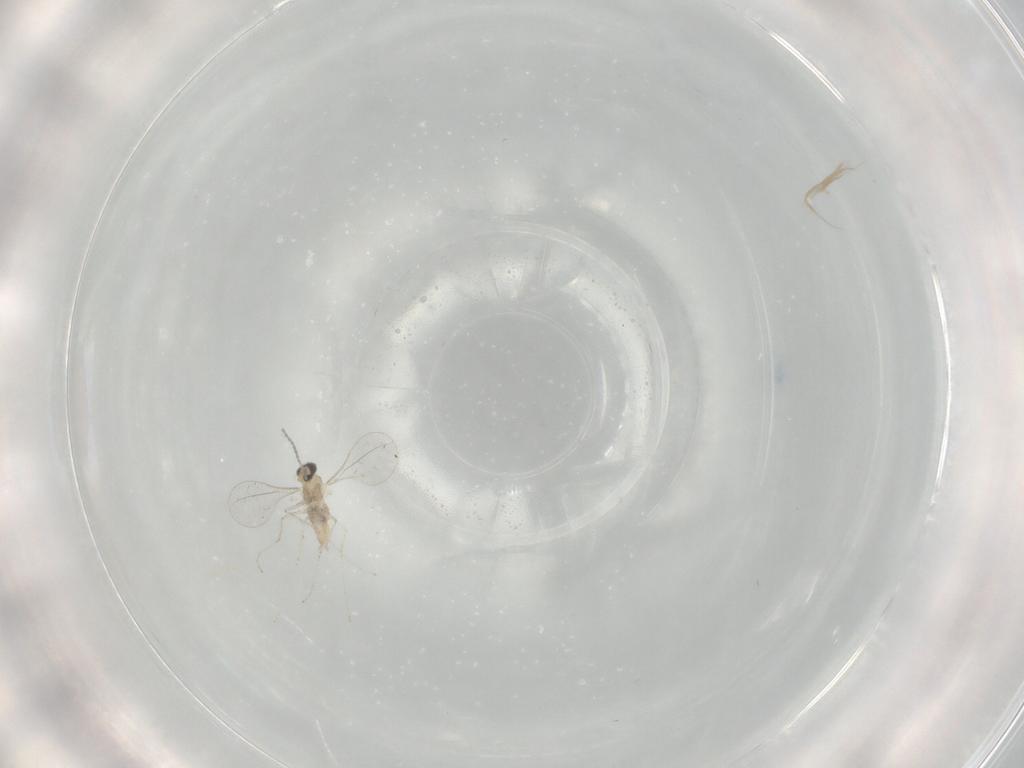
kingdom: Animalia
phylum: Arthropoda
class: Insecta
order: Diptera
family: Cecidomyiidae
